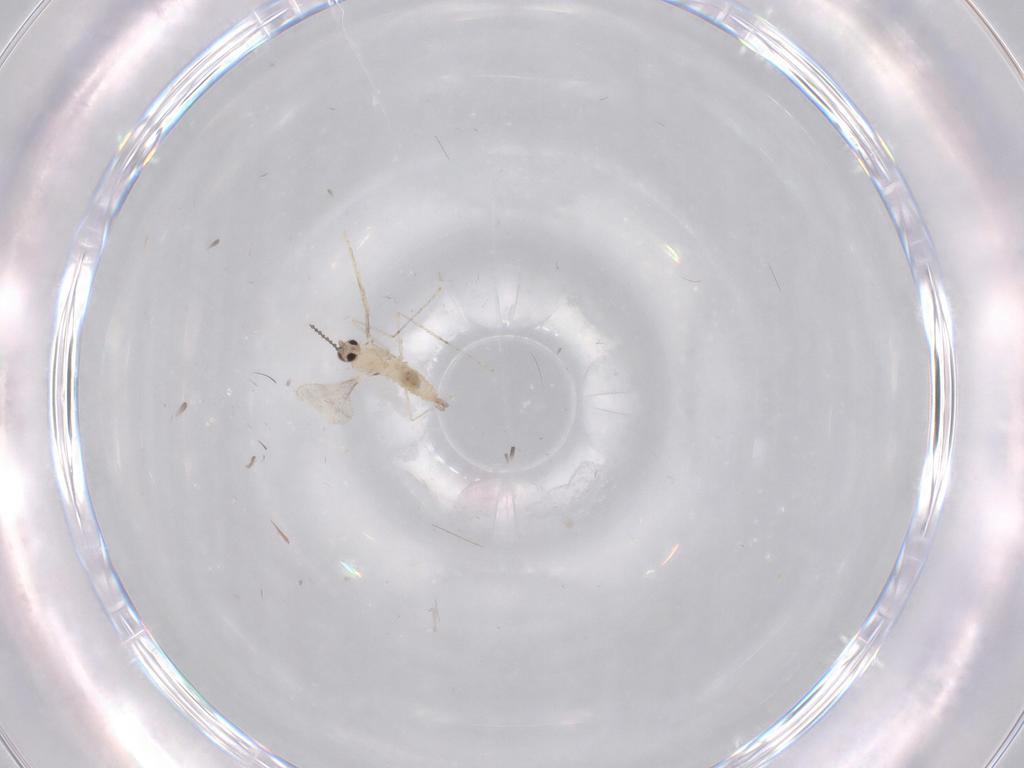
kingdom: Animalia
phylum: Arthropoda
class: Insecta
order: Diptera
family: Cecidomyiidae
